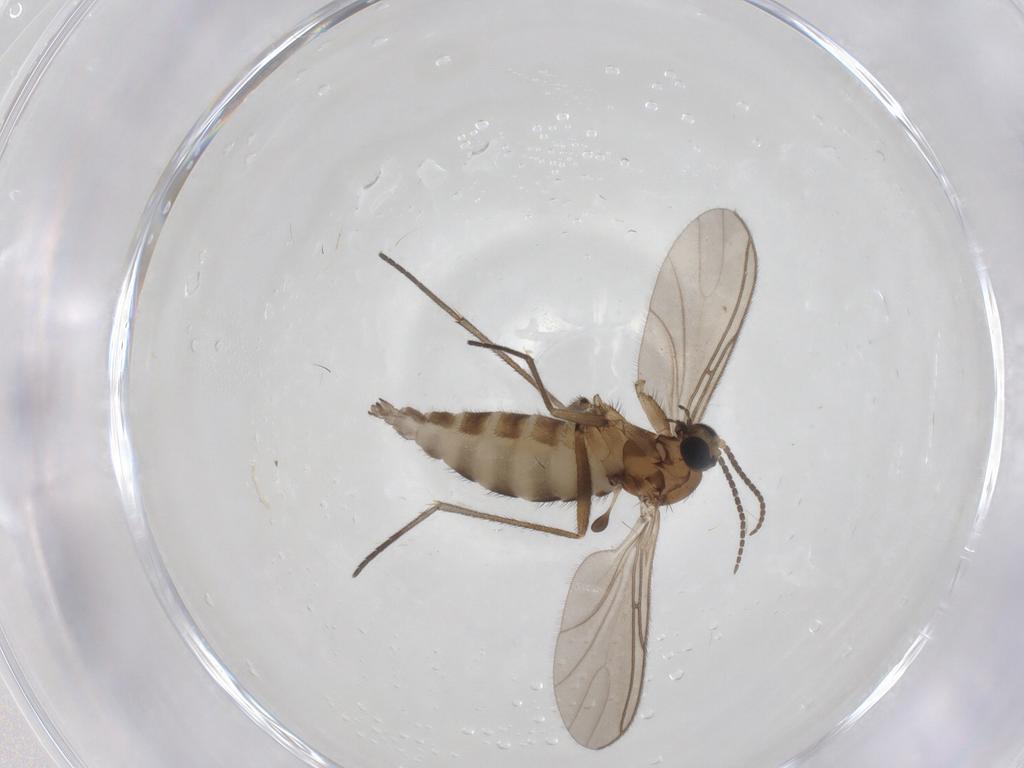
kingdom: Animalia
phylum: Arthropoda
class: Insecta
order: Diptera
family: Sciaridae
